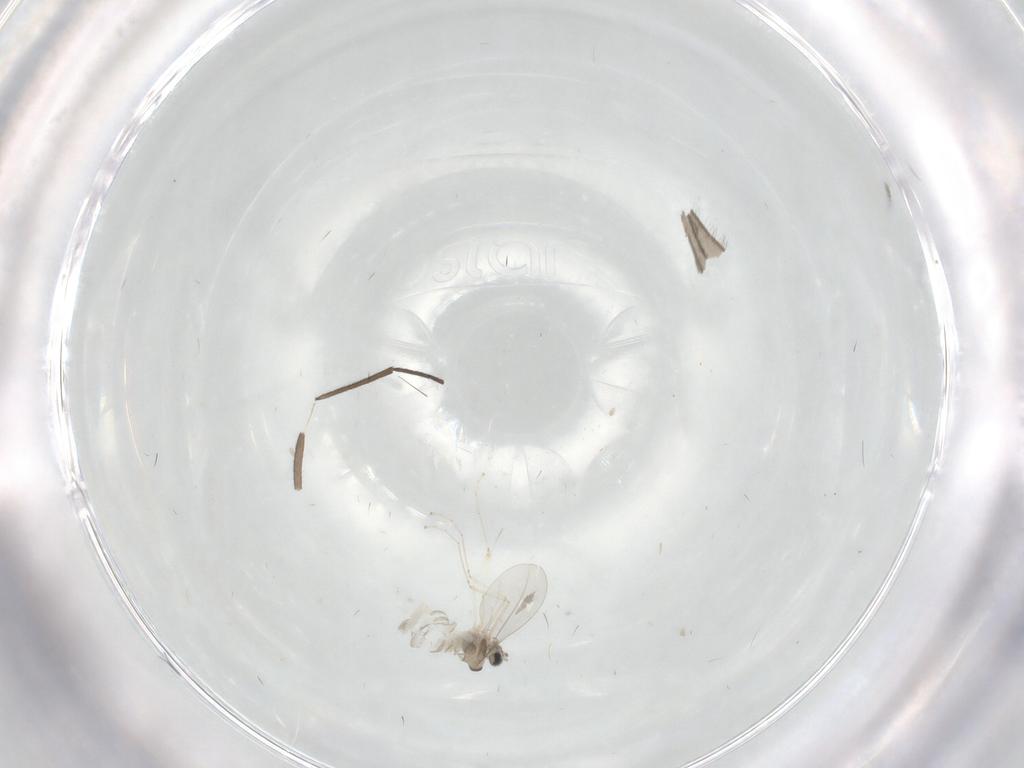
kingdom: Animalia
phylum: Arthropoda
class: Insecta
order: Diptera
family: Cecidomyiidae
